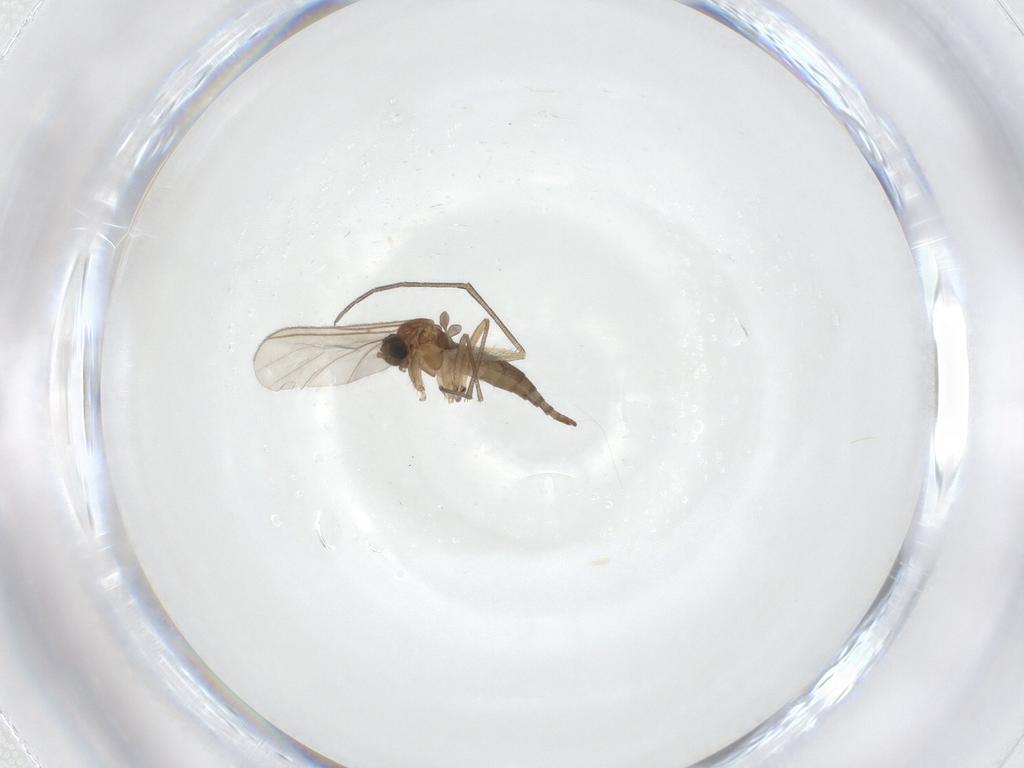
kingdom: Animalia
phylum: Arthropoda
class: Insecta
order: Diptera
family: Sciaridae
